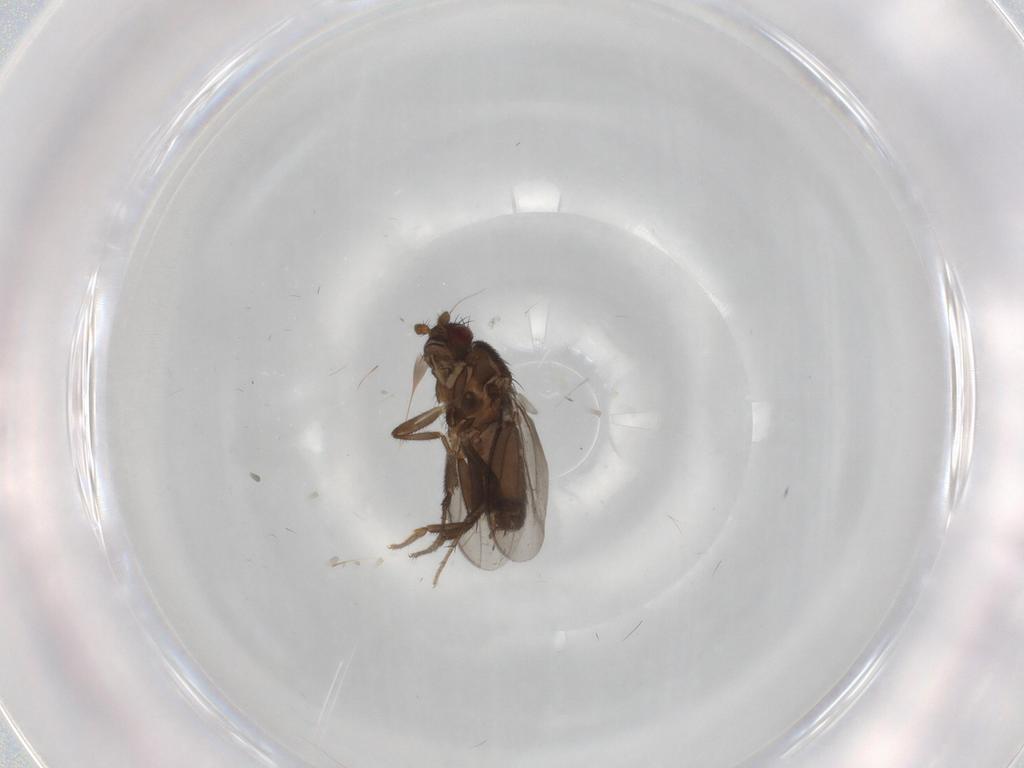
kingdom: Animalia
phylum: Arthropoda
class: Insecta
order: Diptera
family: Sphaeroceridae
